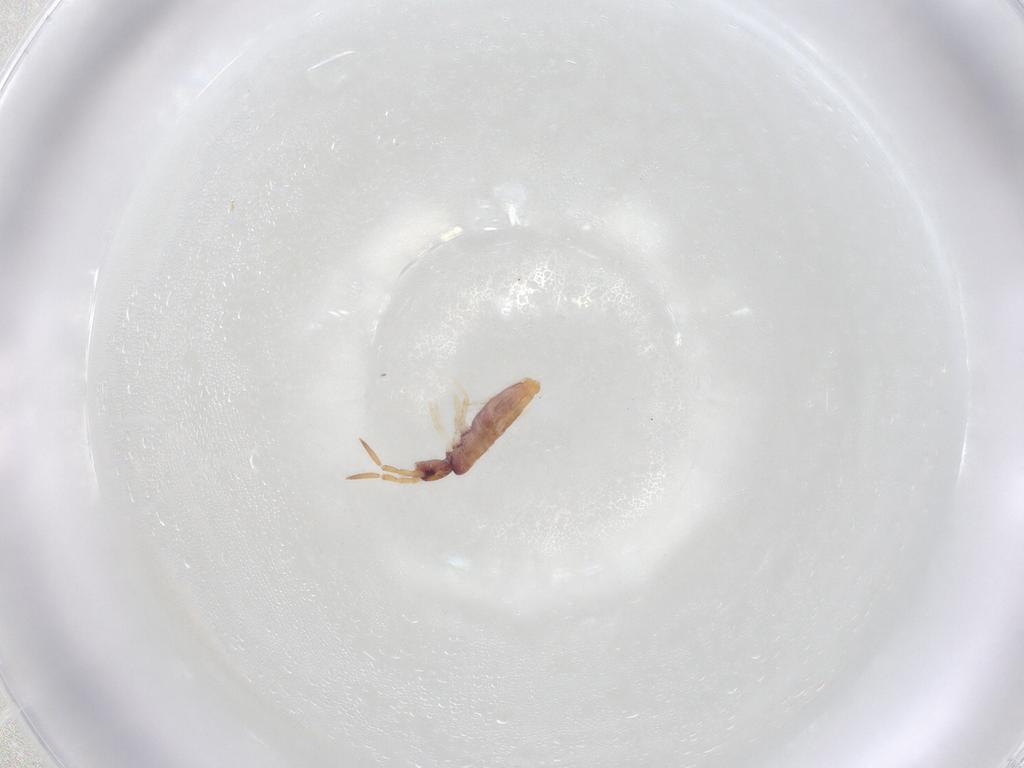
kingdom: Animalia
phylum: Arthropoda
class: Collembola
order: Entomobryomorpha
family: Entomobryidae
